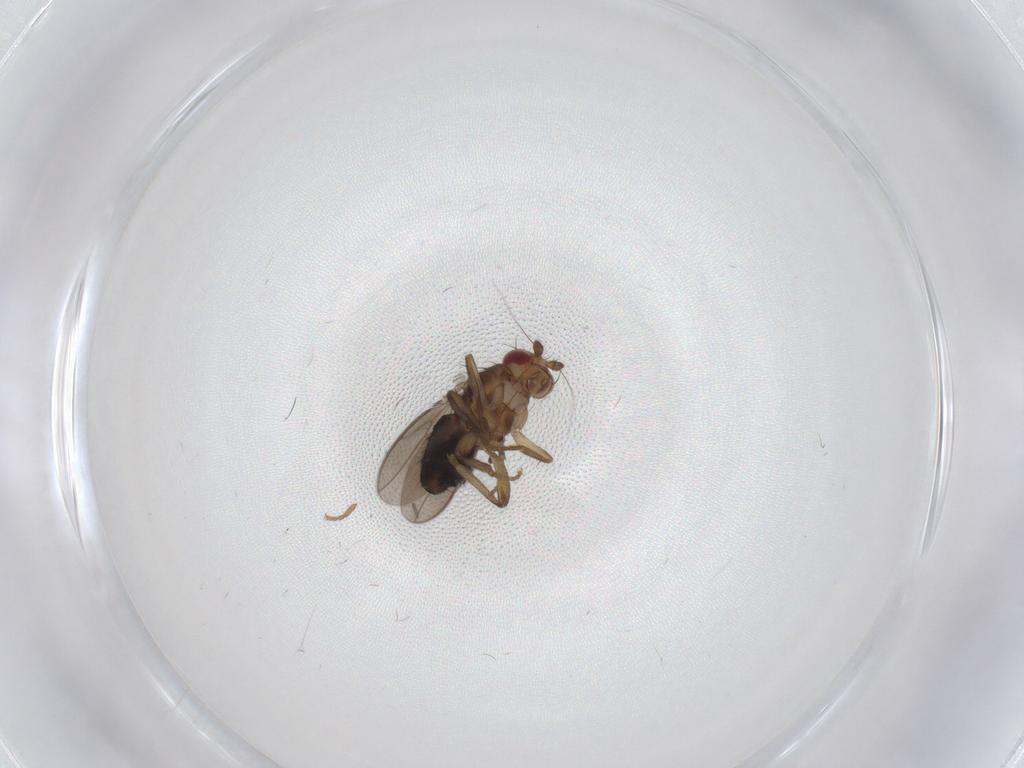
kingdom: Animalia
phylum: Arthropoda
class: Insecta
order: Diptera
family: Sphaeroceridae
